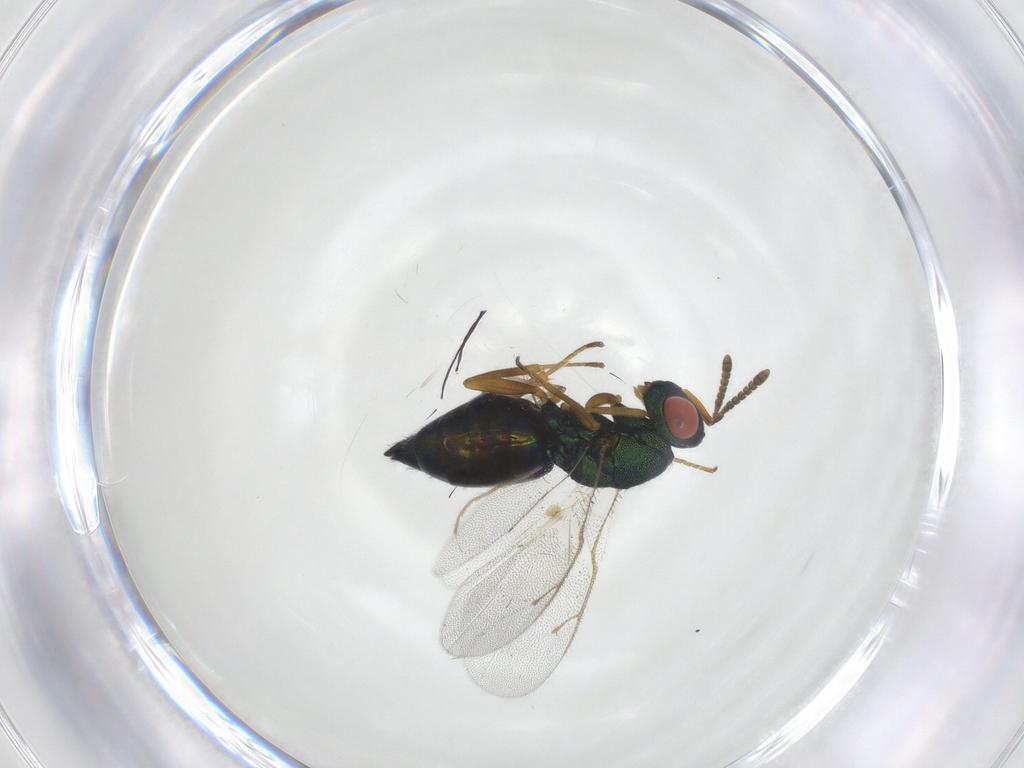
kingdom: Animalia
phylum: Arthropoda
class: Insecta
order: Hymenoptera
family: Pteromalidae
